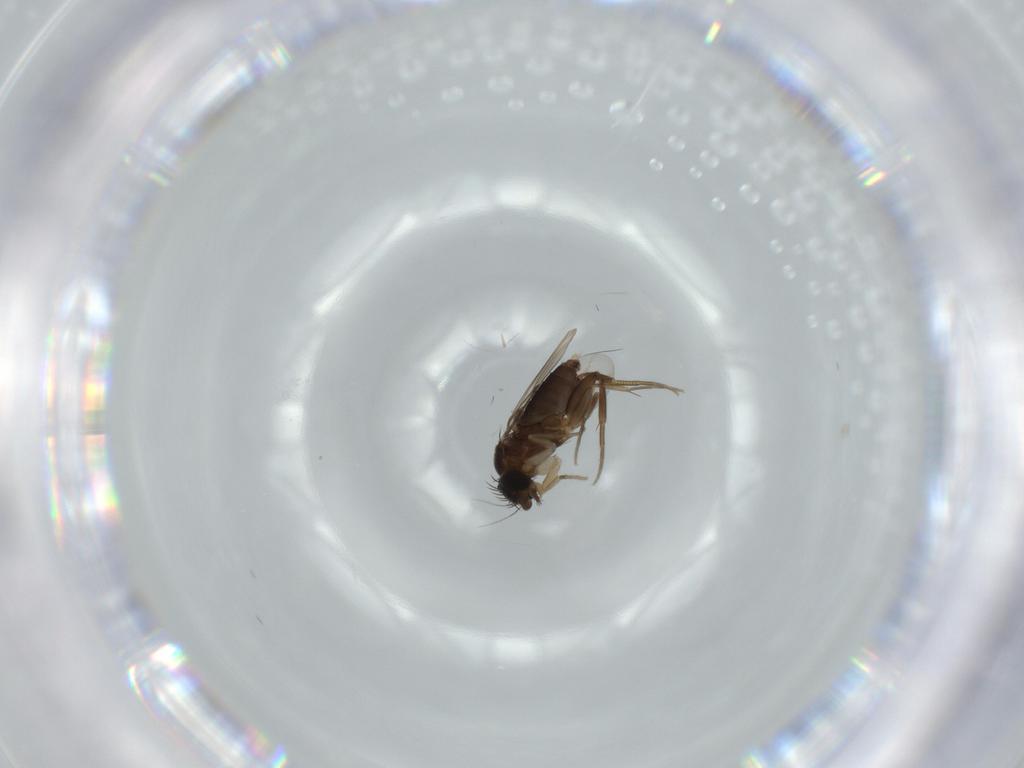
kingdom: Animalia
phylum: Arthropoda
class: Insecta
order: Diptera
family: Phoridae
